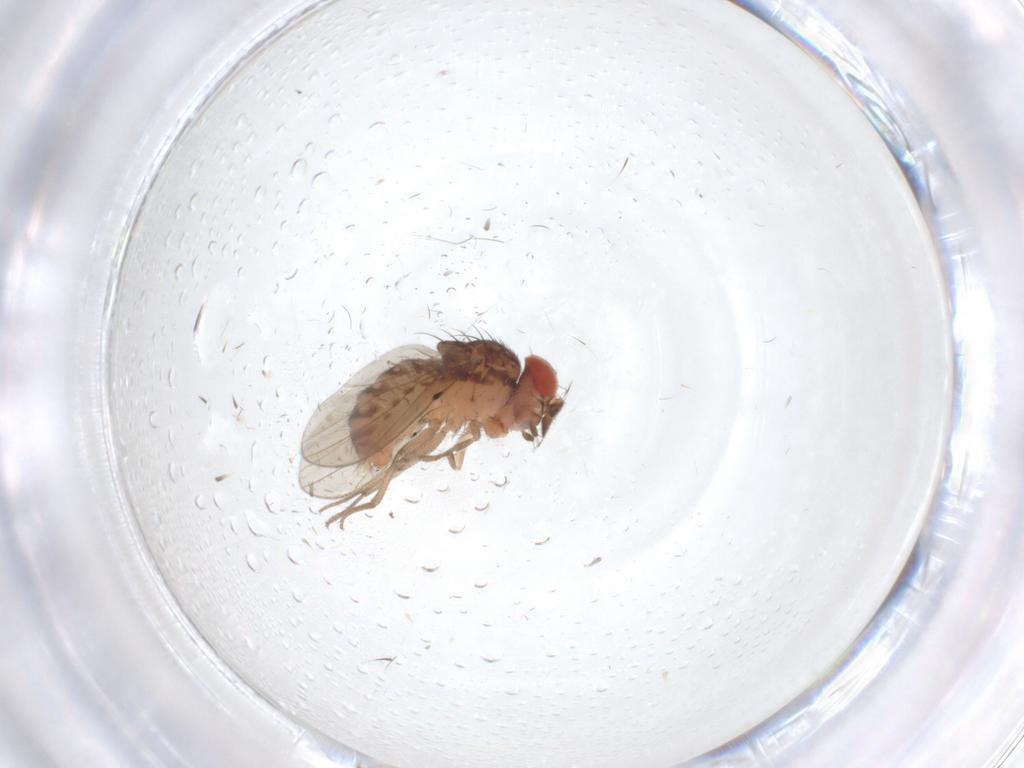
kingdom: Animalia
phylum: Arthropoda
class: Insecta
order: Diptera
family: Drosophilidae
